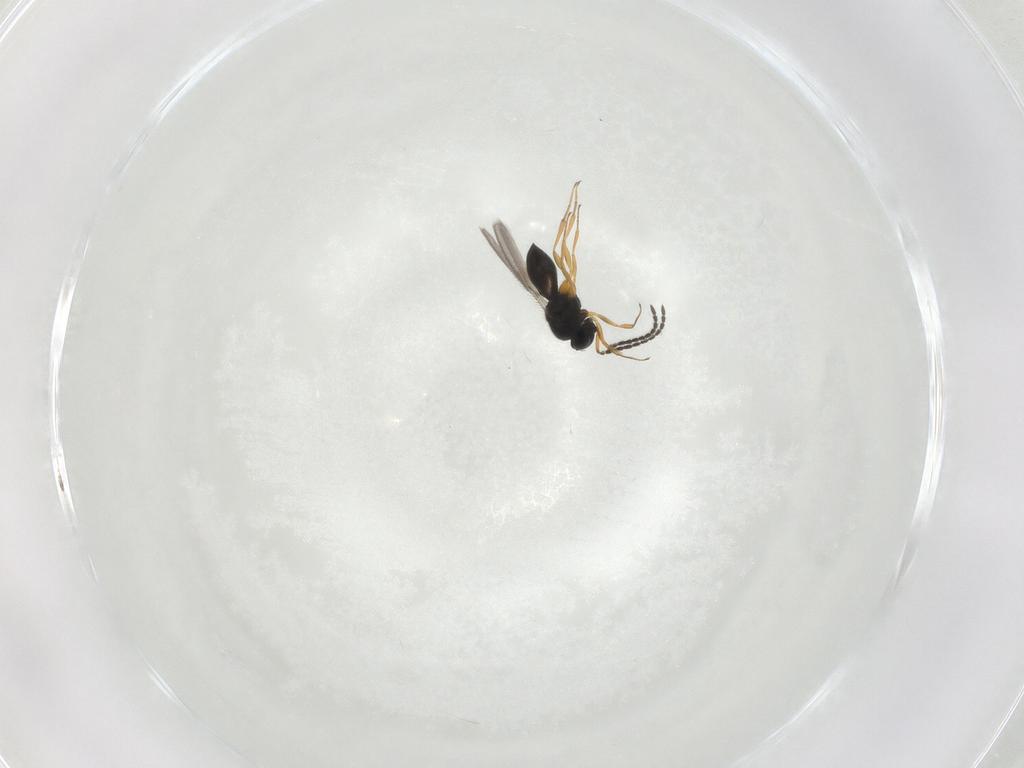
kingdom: Animalia
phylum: Arthropoda
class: Insecta
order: Hymenoptera
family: Scelionidae
